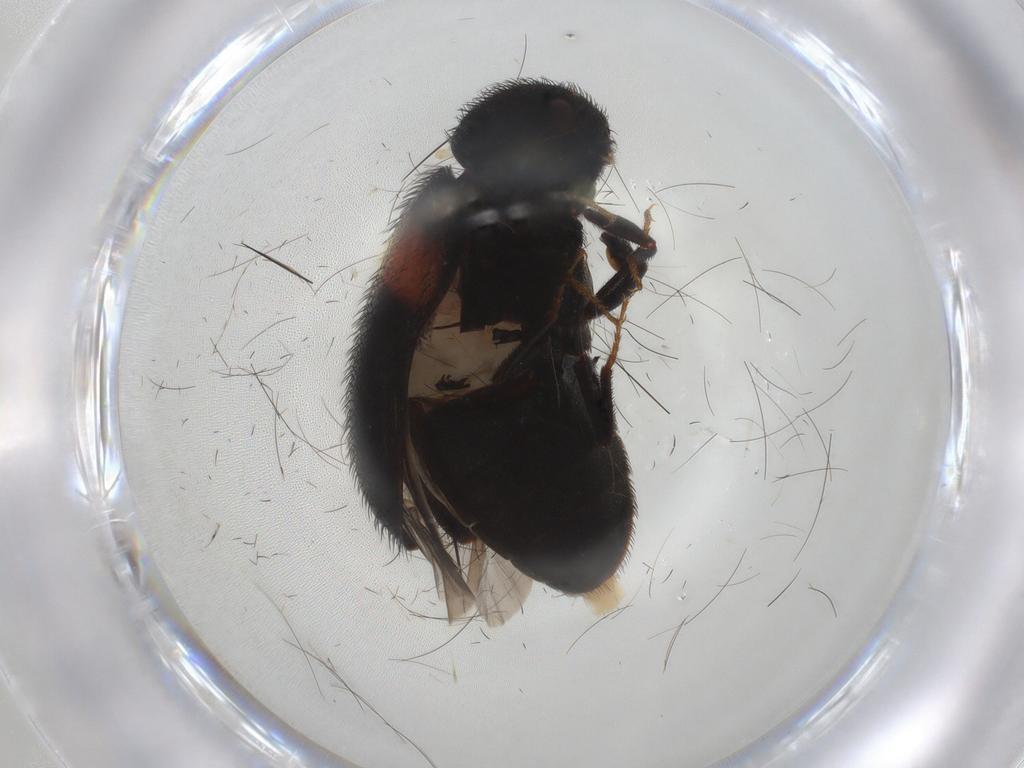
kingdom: Animalia
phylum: Arthropoda
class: Insecta
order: Coleoptera
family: Dermestidae
